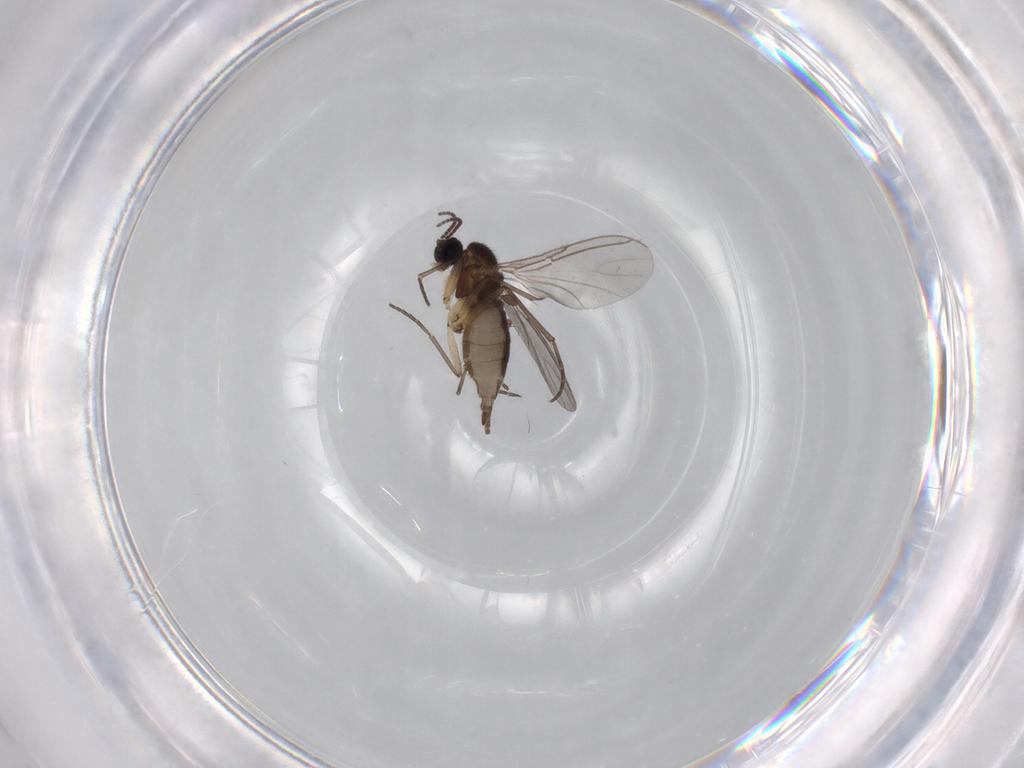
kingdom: Animalia
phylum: Arthropoda
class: Insecta
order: Diptera
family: Sciaridae
